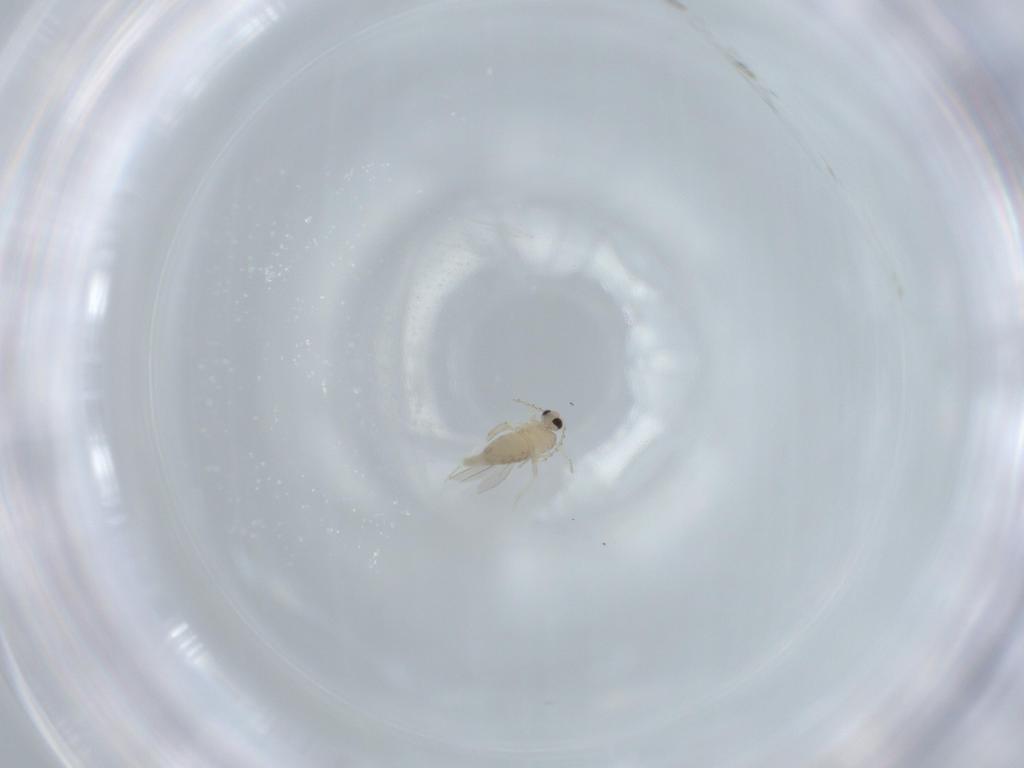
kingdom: Animalia
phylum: Arthropoda
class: Insecta
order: Diptera
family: Cecidomyiidae
